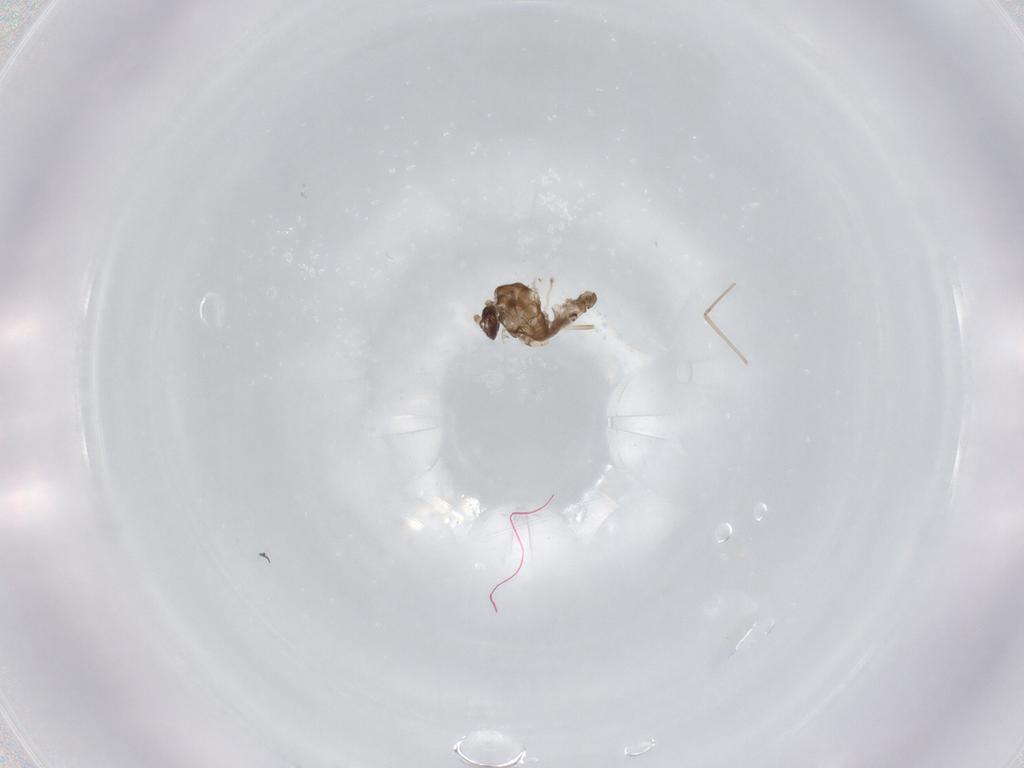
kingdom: Animalia
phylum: Arthropoda
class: Insecta
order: Diptera
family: Cecidomyiidae
